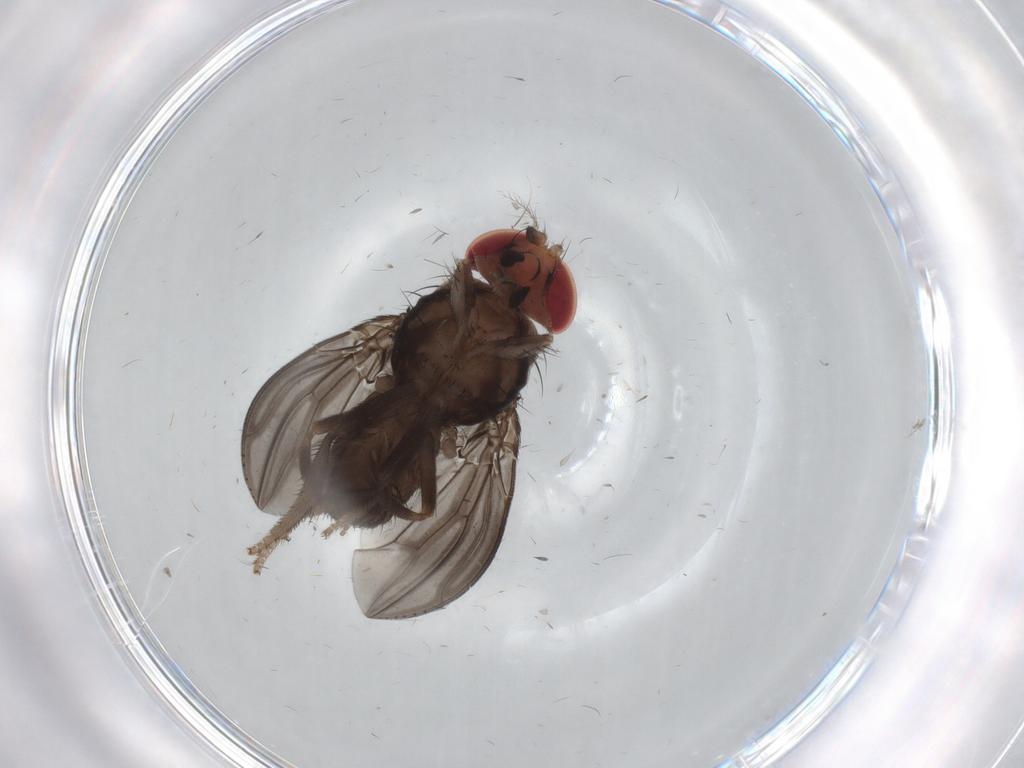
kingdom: Animalia
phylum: Arthropoda
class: Insecta
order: Diptera
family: Drosophilidae
